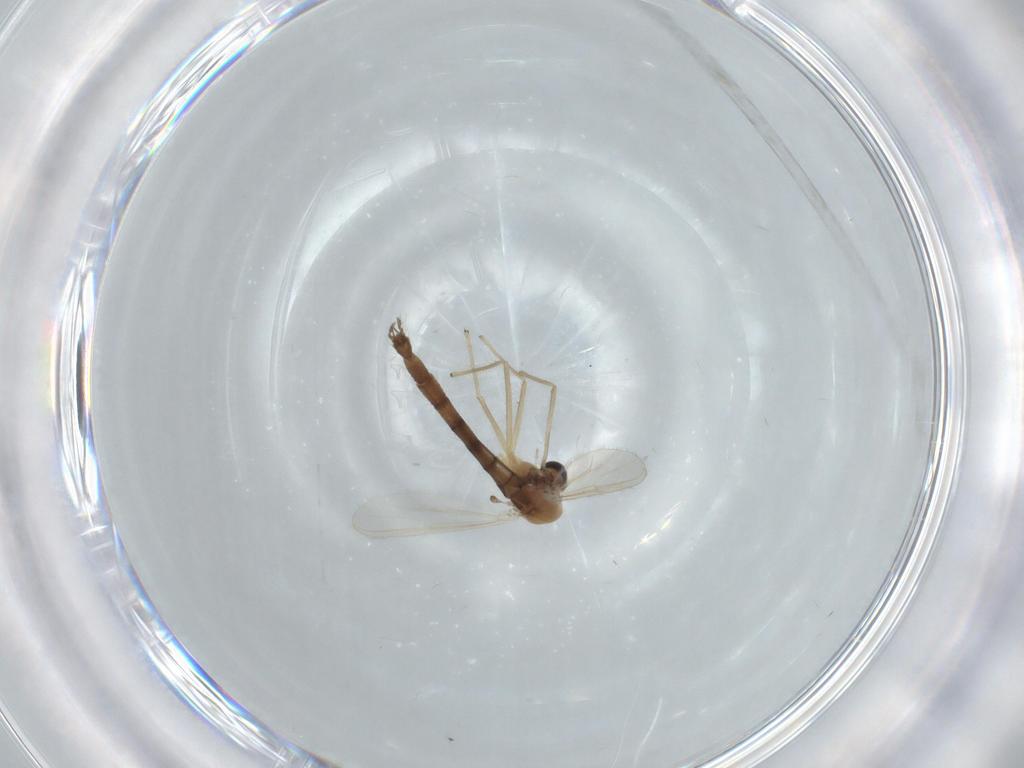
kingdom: Animalia
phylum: Arthropoda
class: Insecta
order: Diptera
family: Chironomidae
